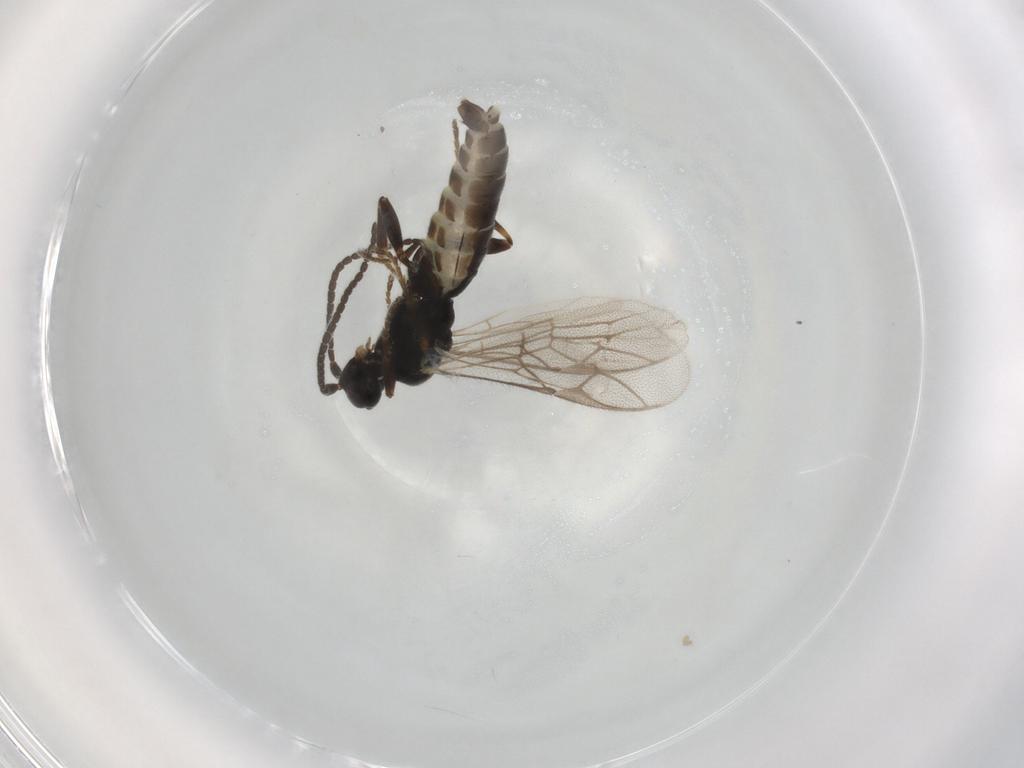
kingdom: Animalia
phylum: Arthropoda
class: Insecta
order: Hymenoptera
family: Ichneumonidae
